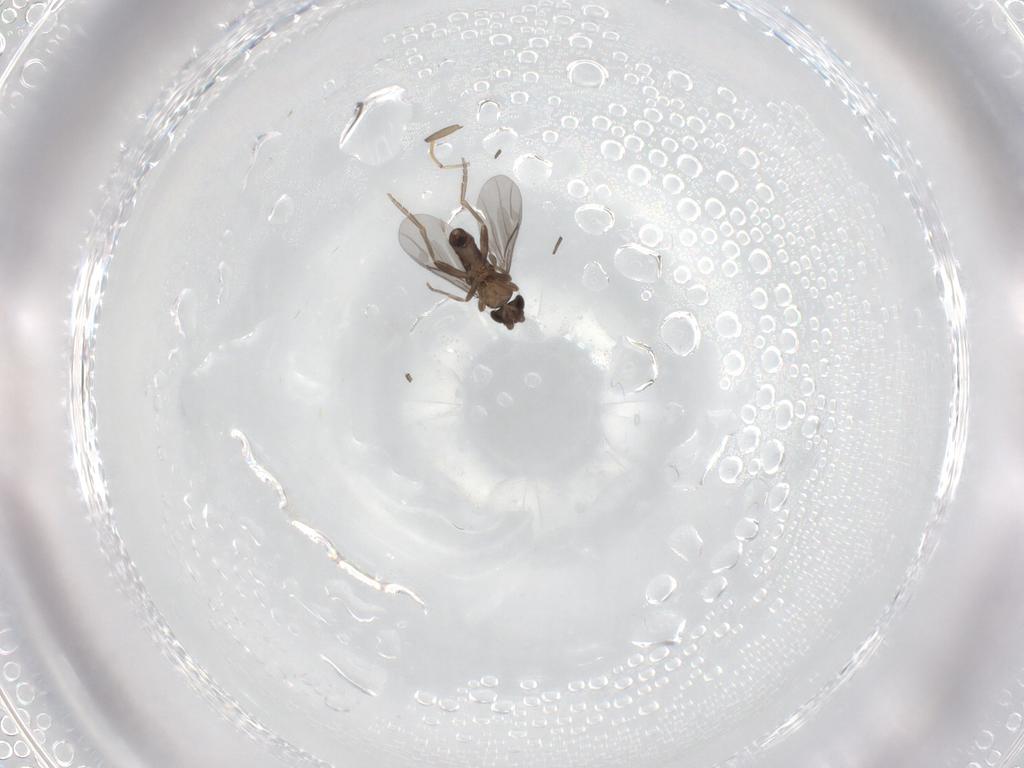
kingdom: Animalia
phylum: Arthropoda
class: Insecta
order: Diptera
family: Psychodidae
